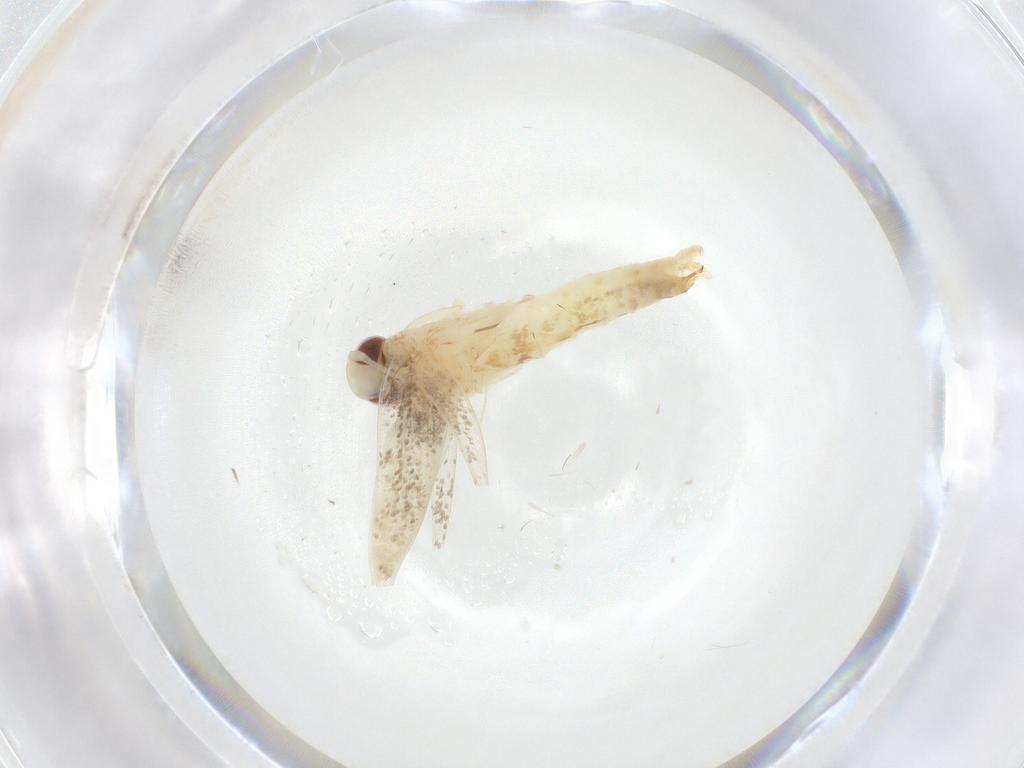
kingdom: Animalia
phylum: Arthropoda
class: Insecta
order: Lepidoptera
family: Cosmopterigidae
